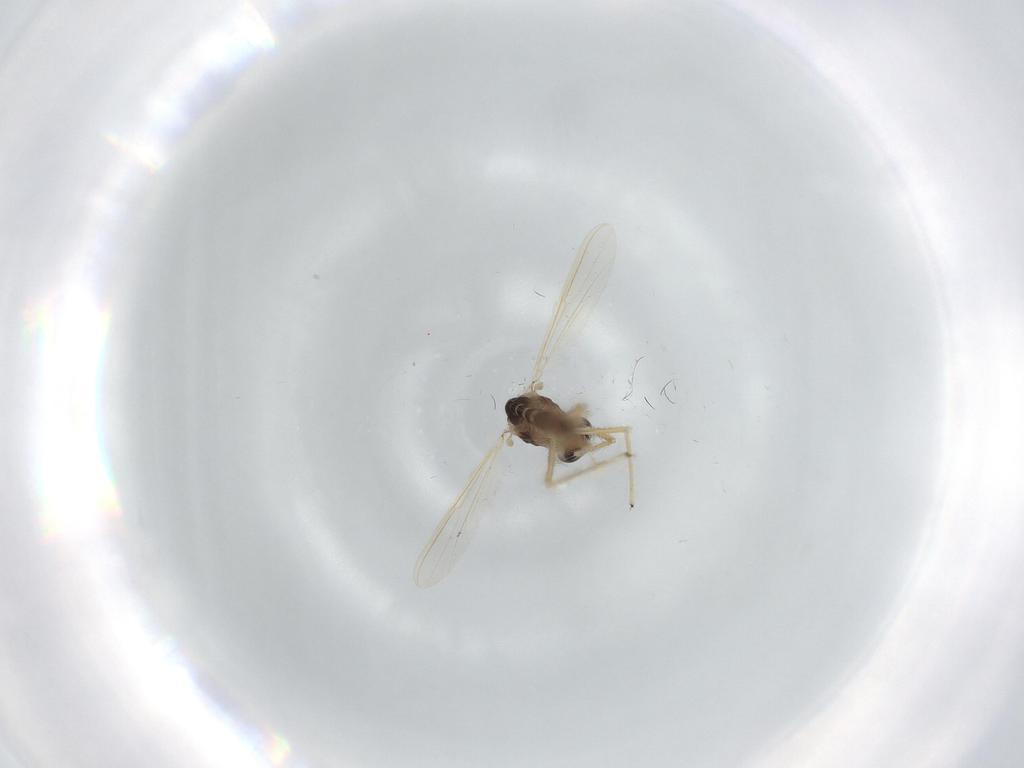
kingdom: Animalia
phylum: Arthropoda
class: Insecta
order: Diptera
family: Chironomidae
